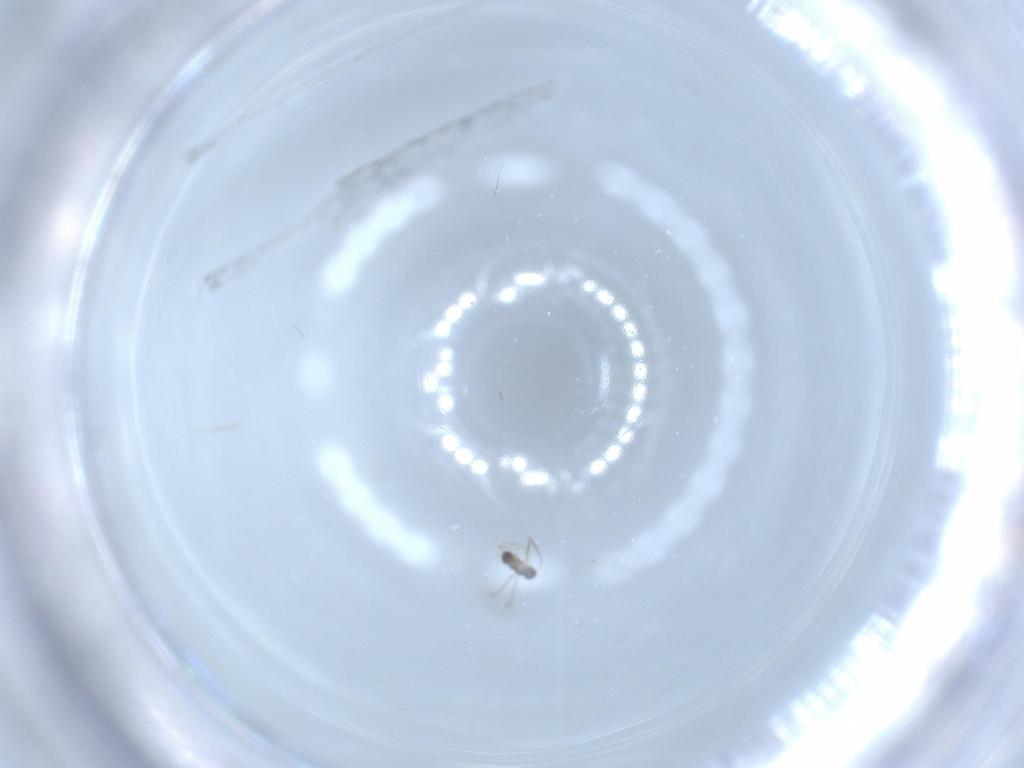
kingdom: Animalia
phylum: Arthropoda
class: Insecta
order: Hymenoptera
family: Mymaridae
